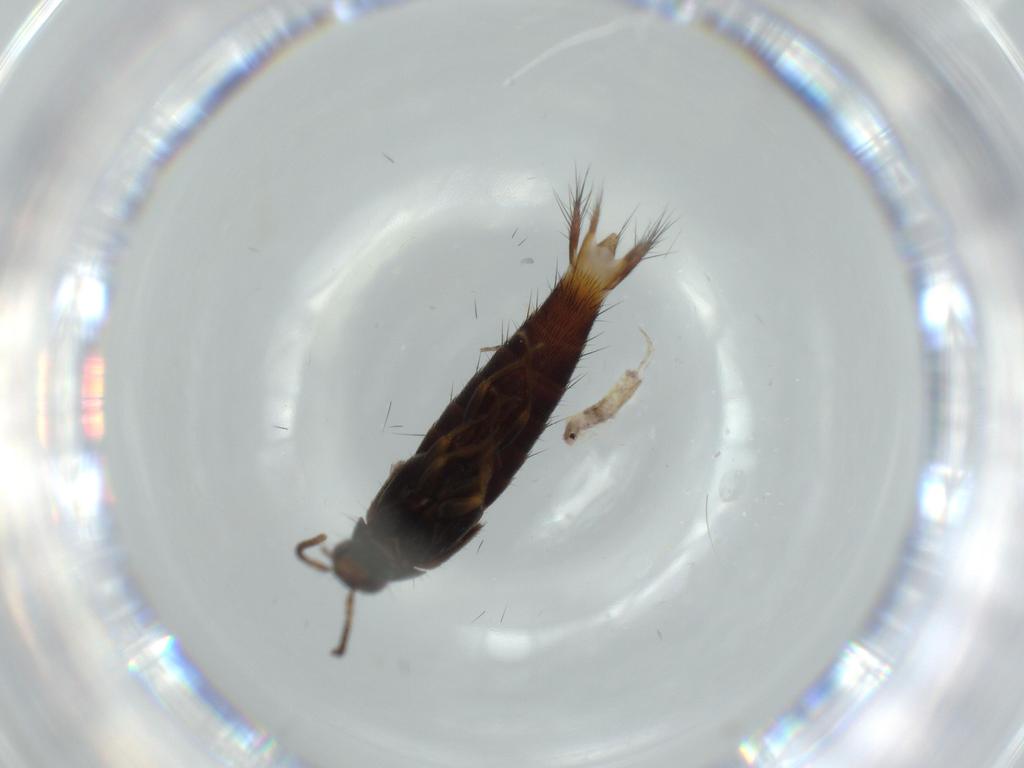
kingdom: Animalia
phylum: Arthropoda
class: Insecta
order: Coleoptera
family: Staphylinidae
